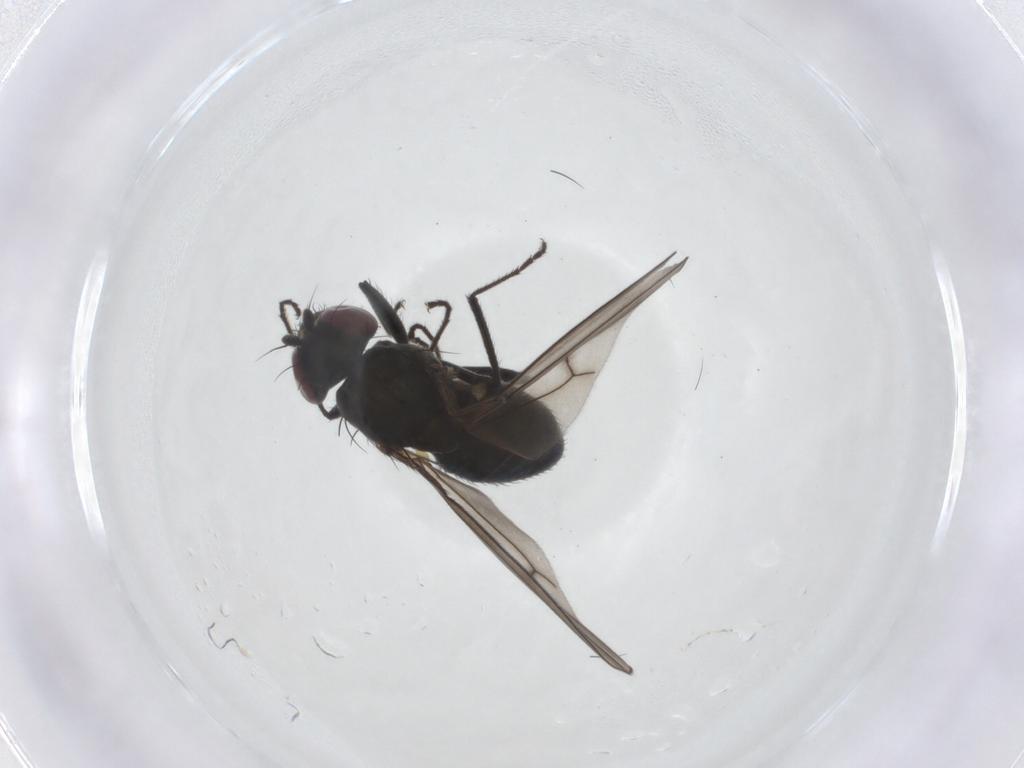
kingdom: Animalia
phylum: Arthropoda
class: Insecta
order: Diptera
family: Ephydridae
